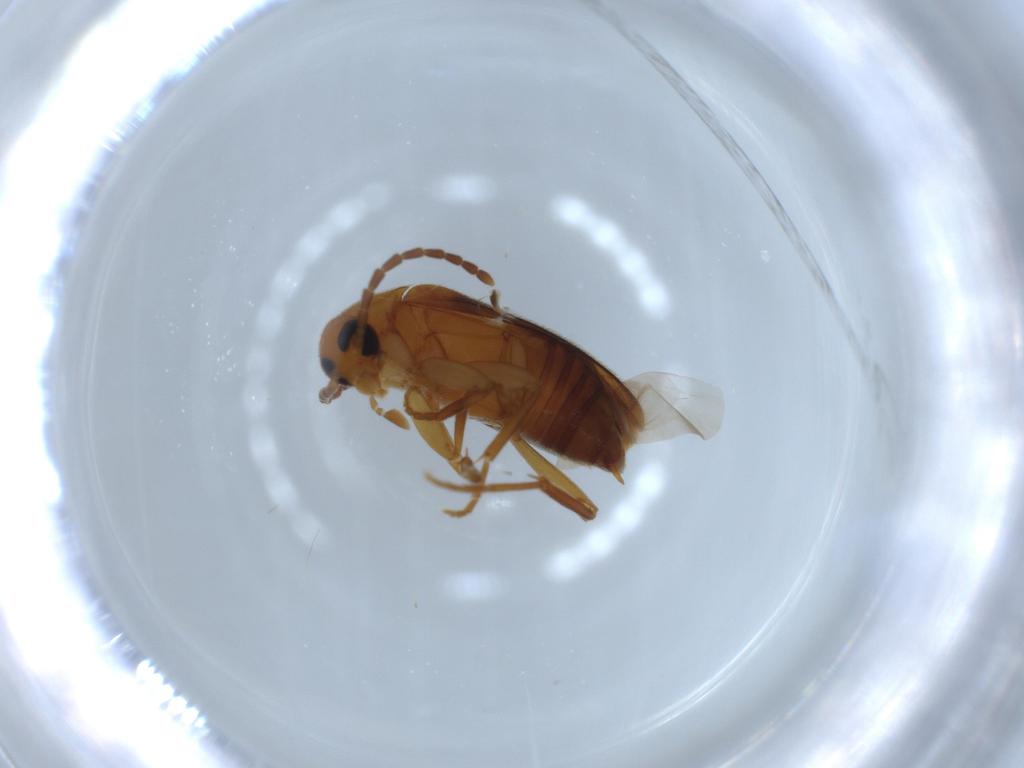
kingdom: Animalia
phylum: Arthropoda
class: Insecta
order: Coleoptera
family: Scraptiidae
